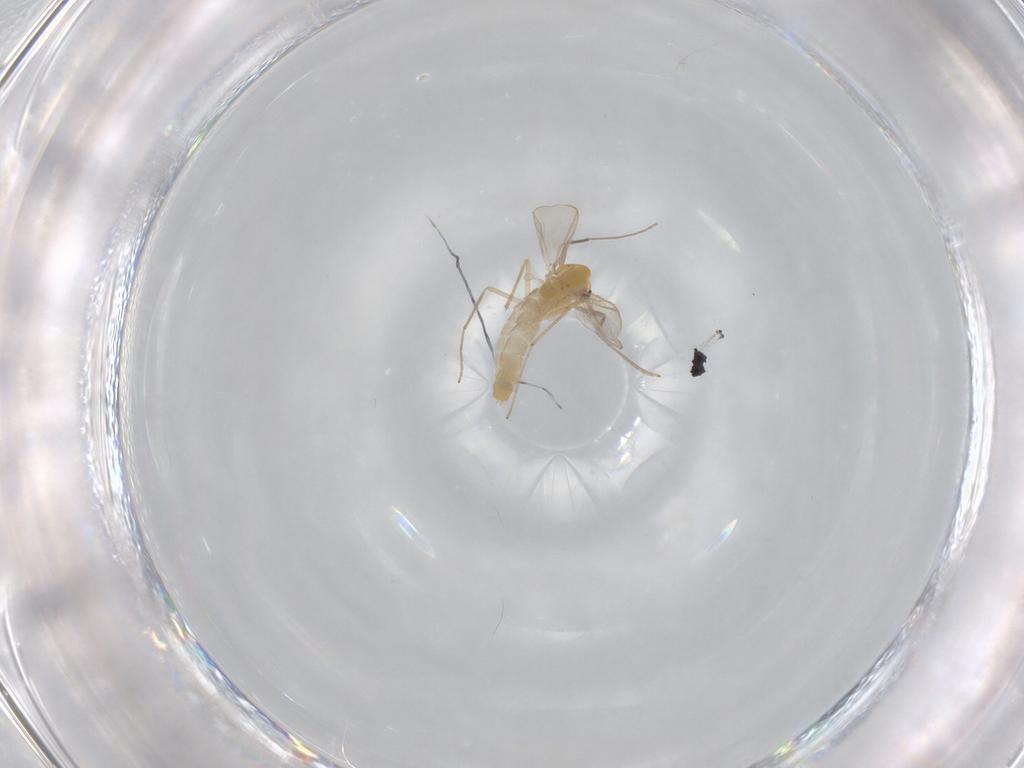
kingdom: Animalia
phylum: Arthropoda
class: Insecta
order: Diptera
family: Chironomidae
